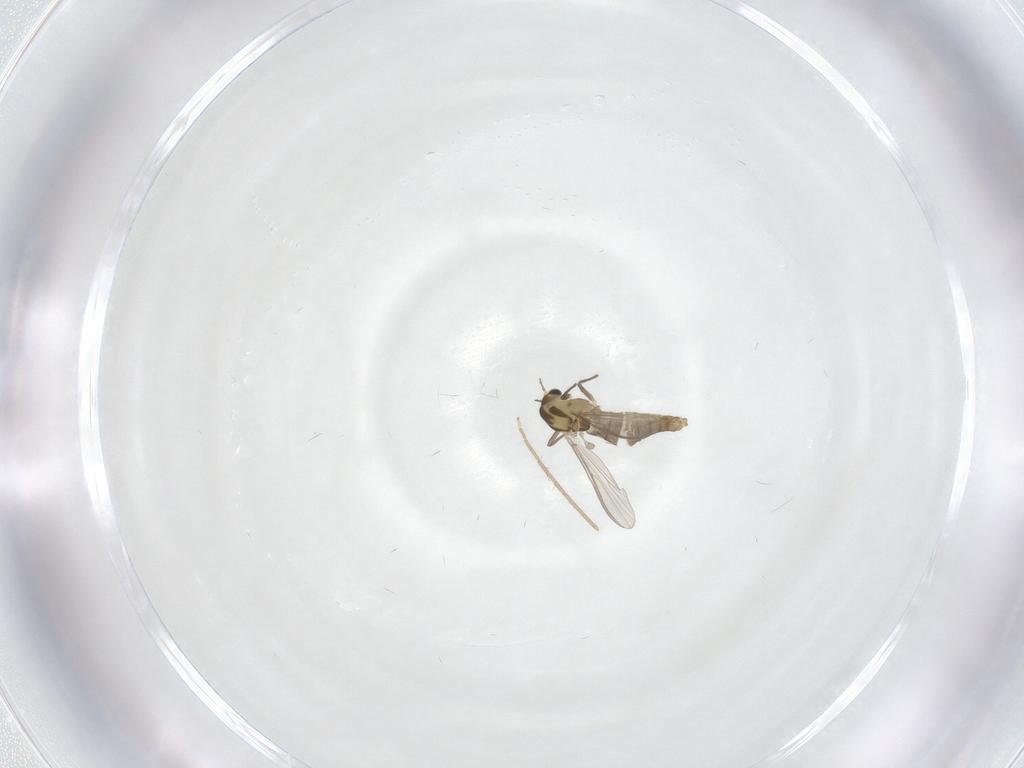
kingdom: Animalia
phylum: Arthropoda
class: Insecta
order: Diptera
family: Chironomidae
